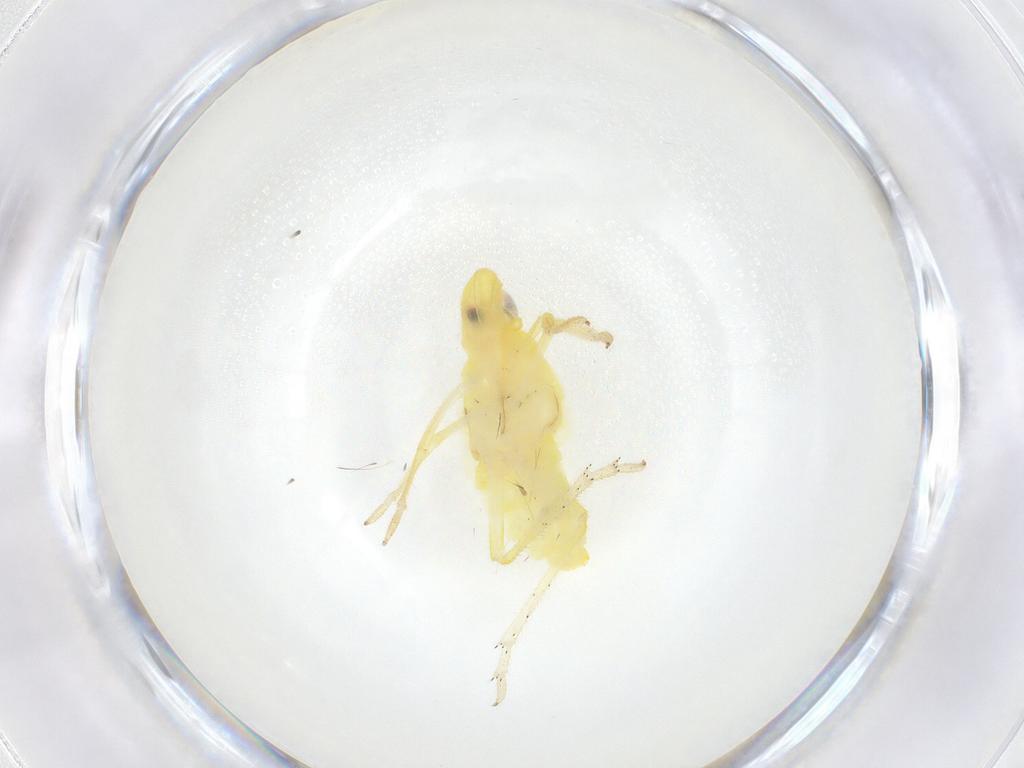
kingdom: Animalia
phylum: Arthropoda
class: Insecta
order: Hemiptera
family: Fulgoroidea_incertae_sedis
